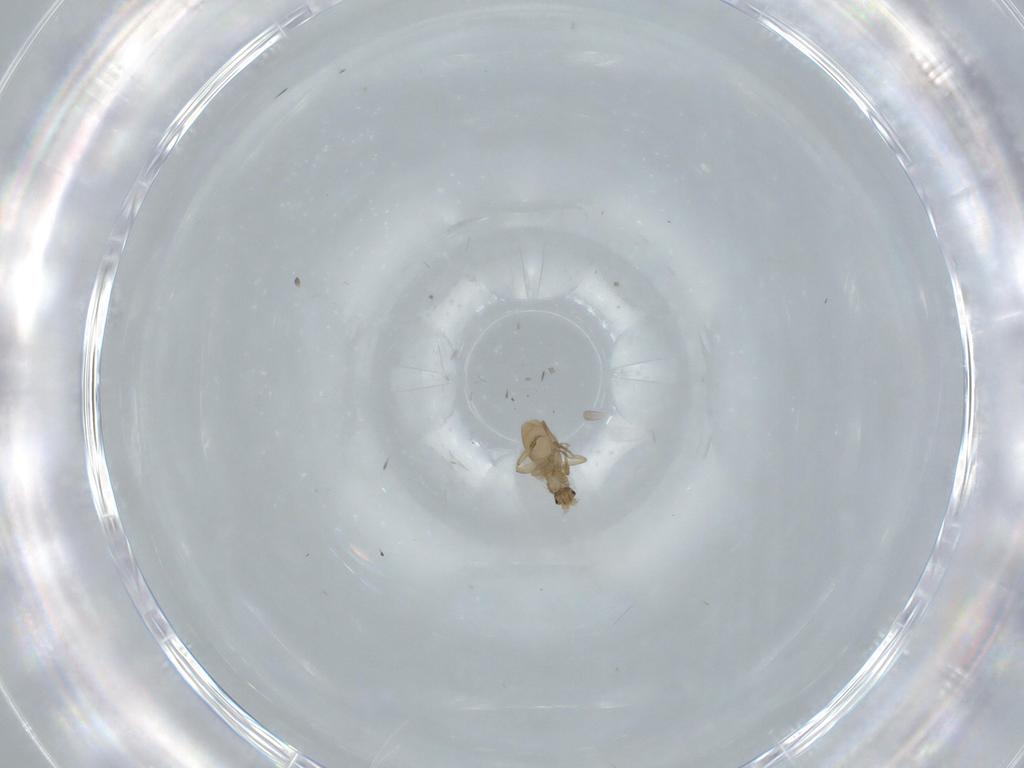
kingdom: Animalia
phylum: Arthropoda
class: Insecta
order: Diptera
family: Phoridae
